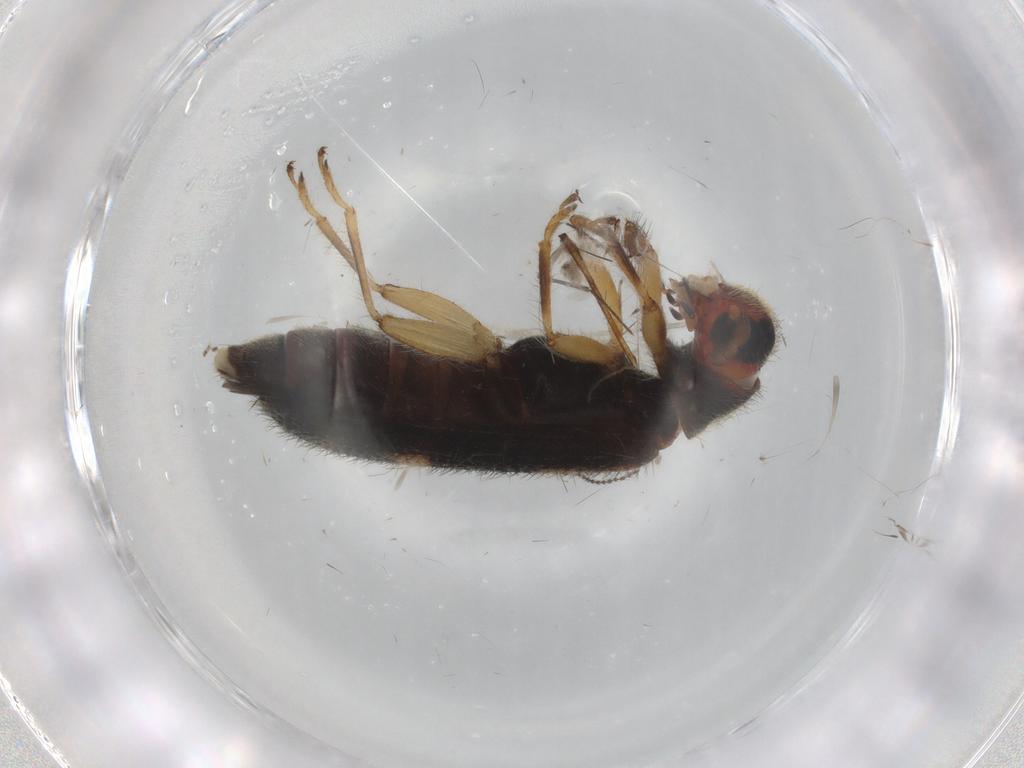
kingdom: Animalia
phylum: Arthropoda
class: Insecta
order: Coleoptera
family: Cleridae
